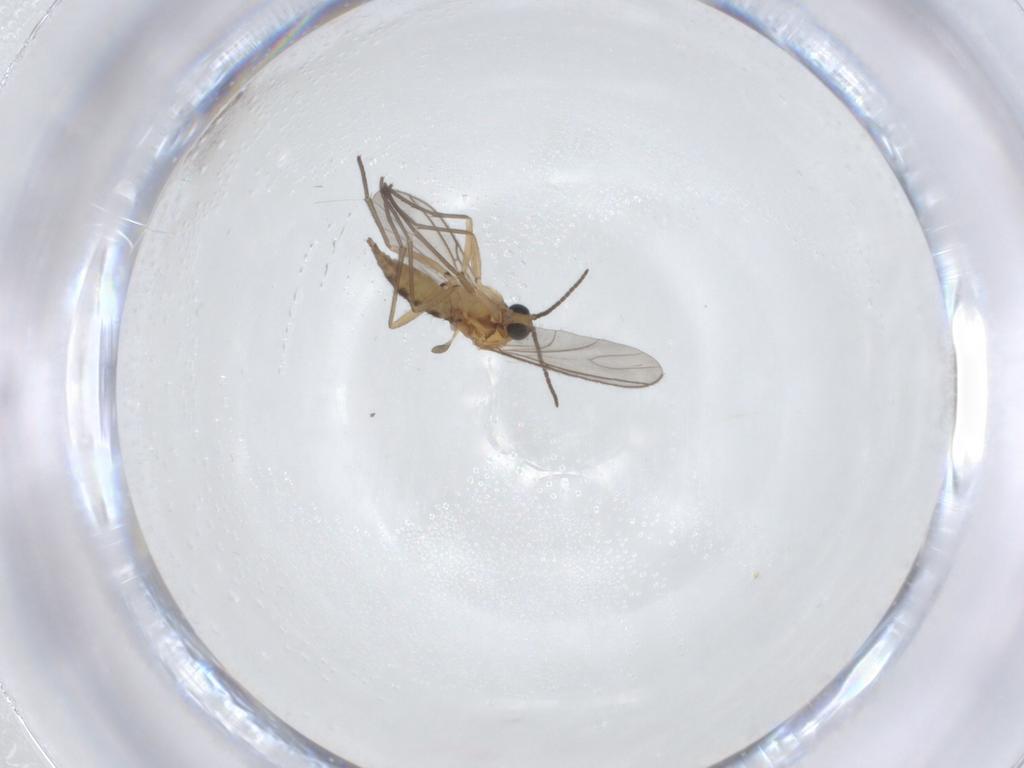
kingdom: Animalia
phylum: Arthropoda
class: Insecta
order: Diptera
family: Sciaridae
